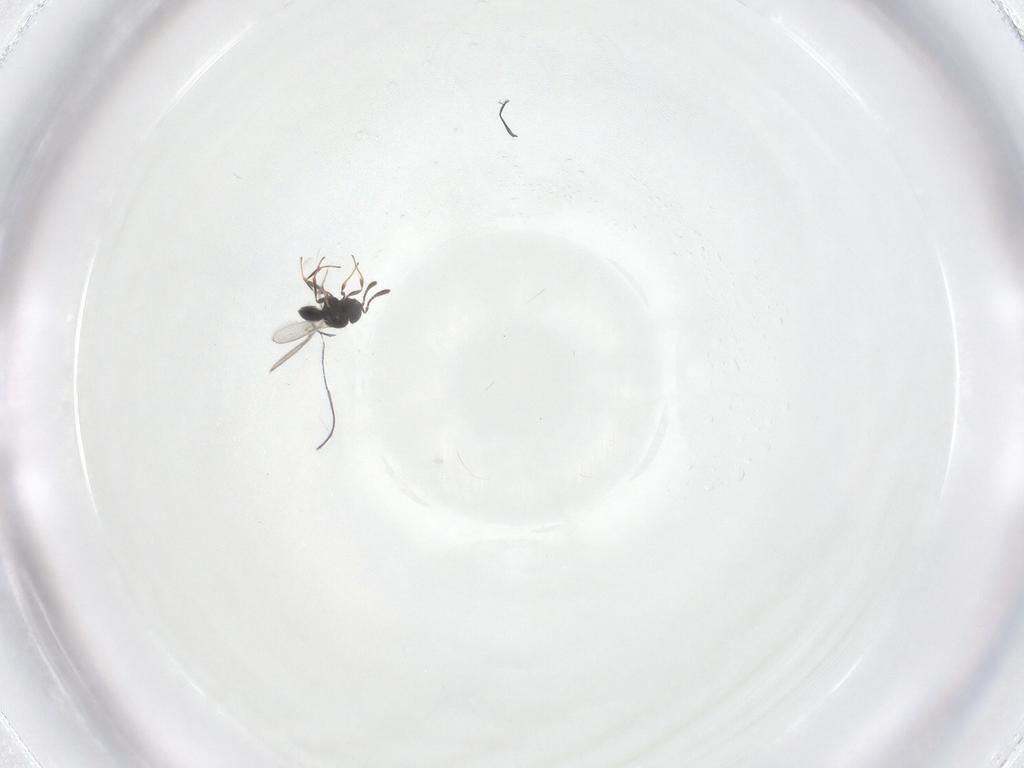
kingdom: Animalia
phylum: Arthropoda
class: Insecta
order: Hymenoptera
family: Scelionidae
